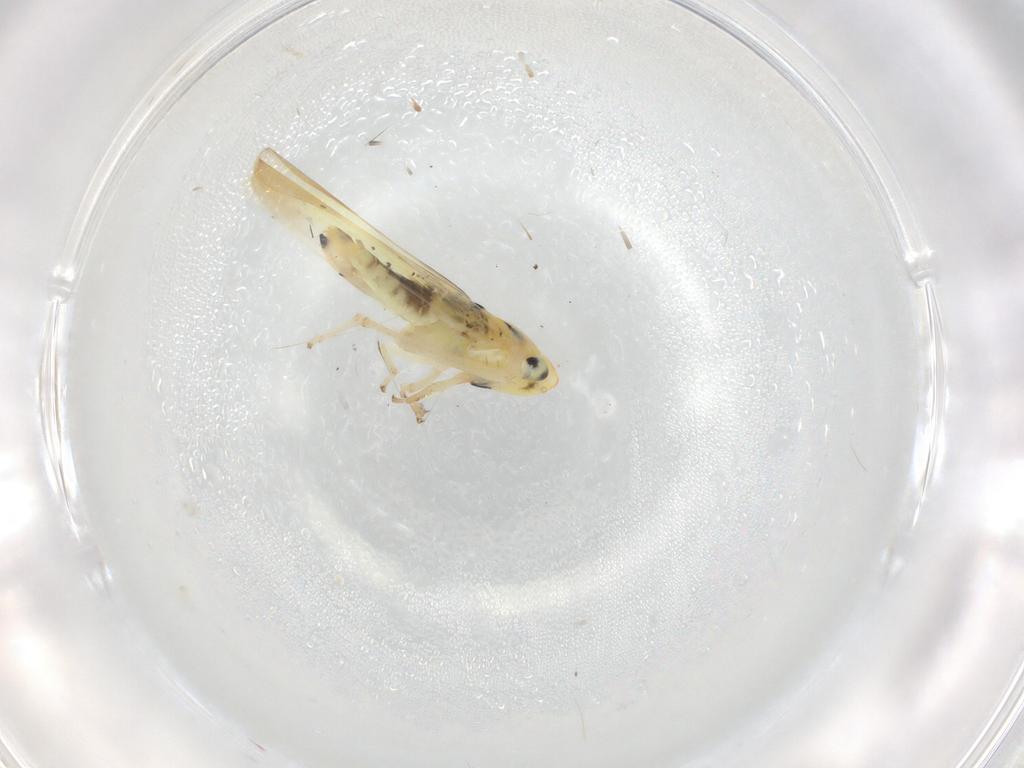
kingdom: Animalia
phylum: Arthropoda
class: Insecta
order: Hemiptera
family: Cicadellidae
